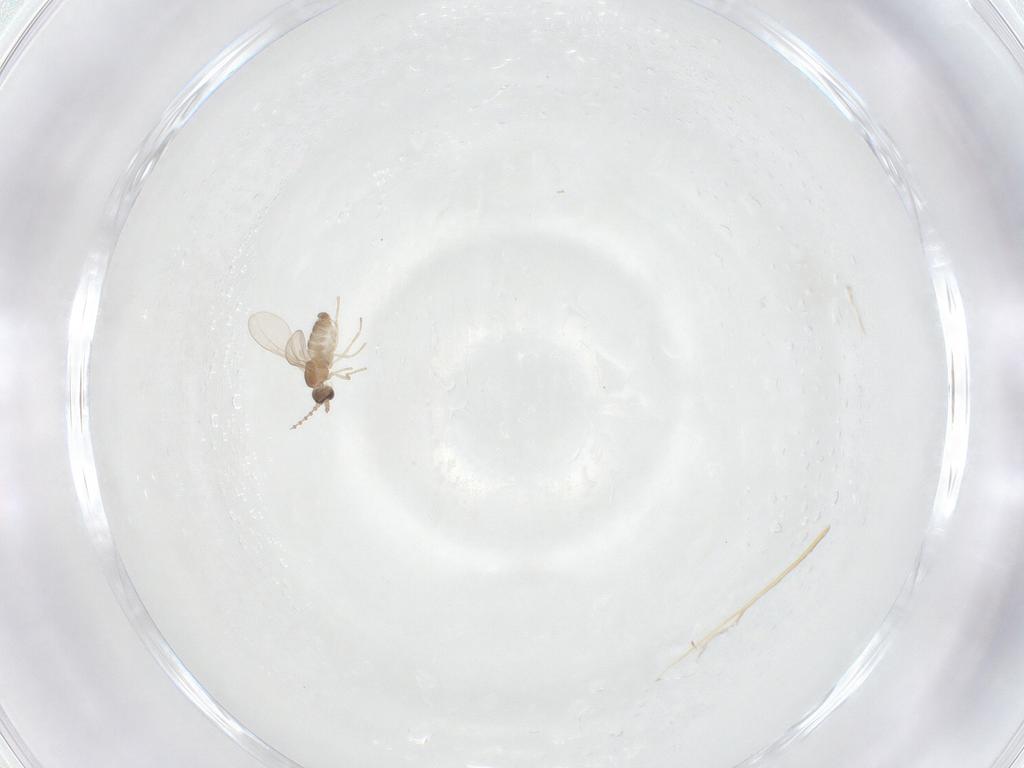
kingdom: Animalia
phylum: Arthropoda
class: Insecta
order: Diptera
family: Cecidomyiidae
